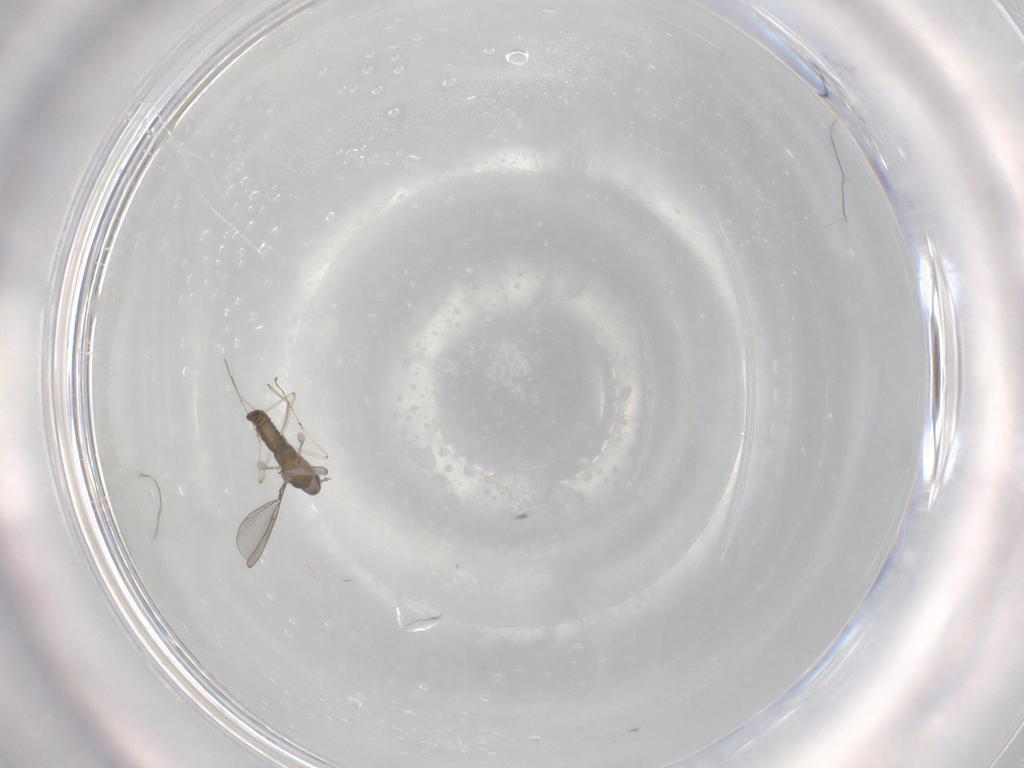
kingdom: Animalia
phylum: Arthropoda
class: Insecta
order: Diptera
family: Cecidomyiidae
